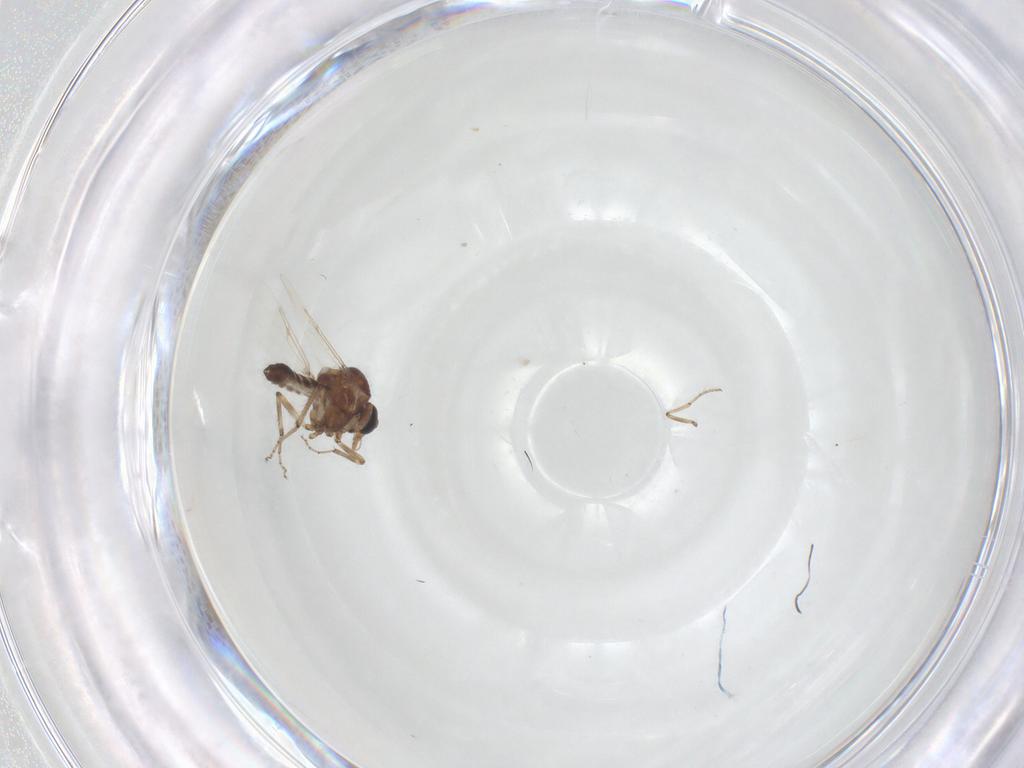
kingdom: Animalia
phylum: Arthropoda
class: Insecta
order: Diptera
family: Ceratopogonidae
